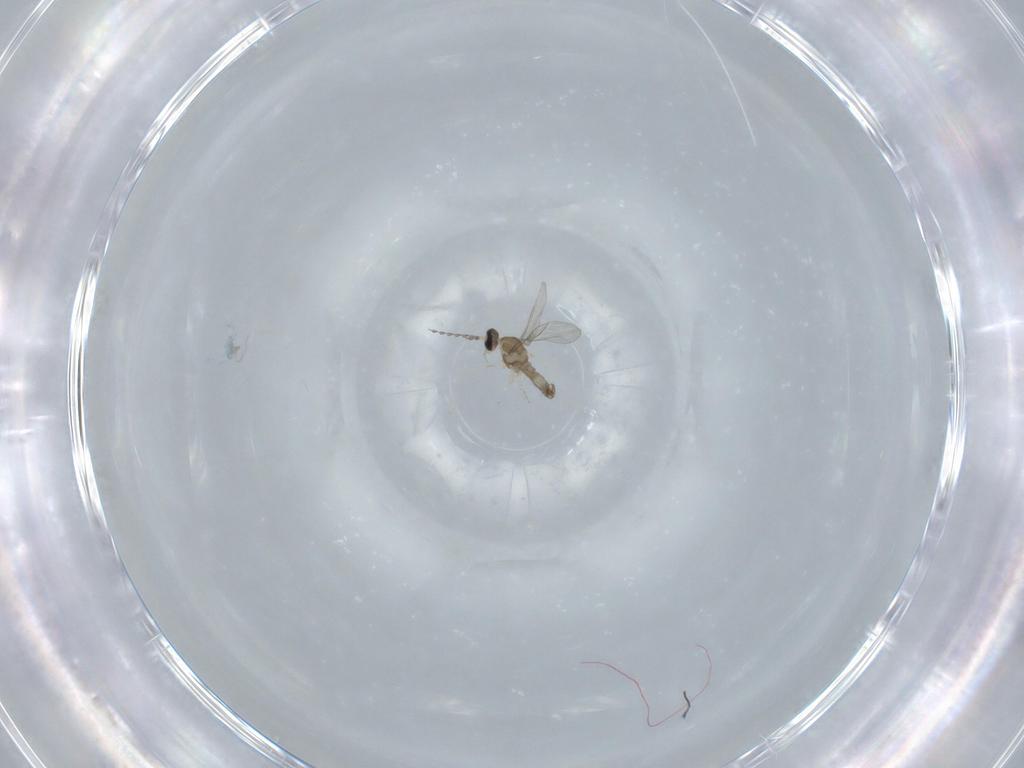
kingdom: Animalia
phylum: Arthropoda
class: Insecta
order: Diptera
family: Cecidomyiidae
